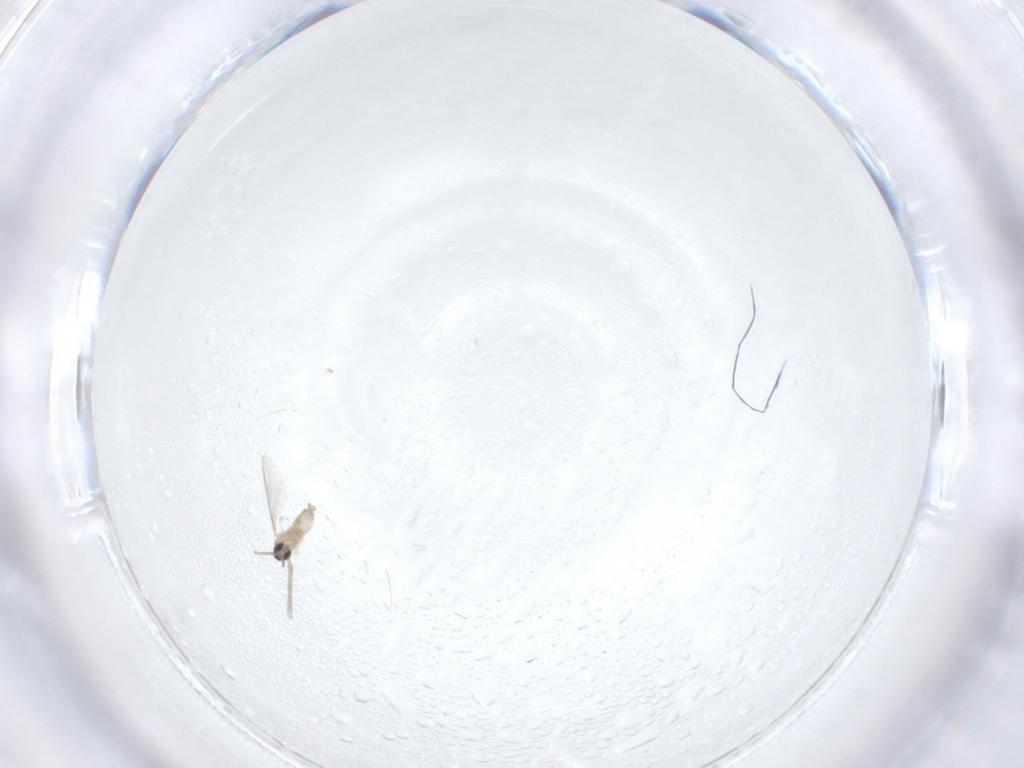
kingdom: Animalia
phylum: Arthropoda
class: Insecta
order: Diptera
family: Cecidomyiidae
